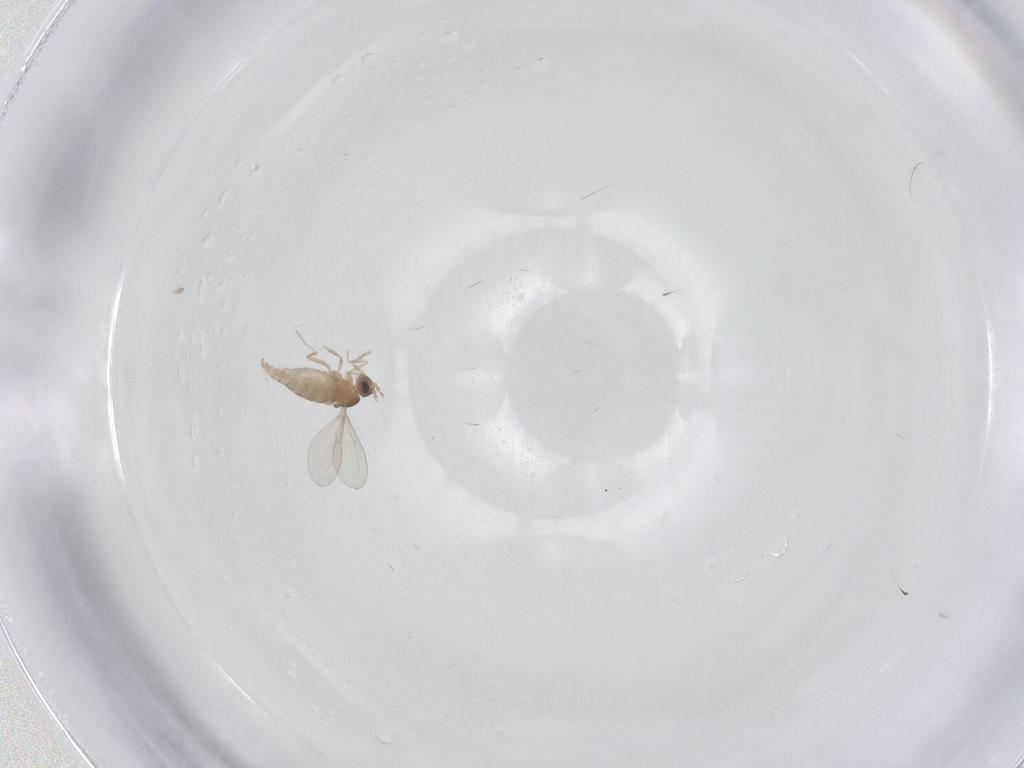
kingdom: Animalia
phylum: Arthropoda
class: Insecta
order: Diptera
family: Cecidomyiidae
